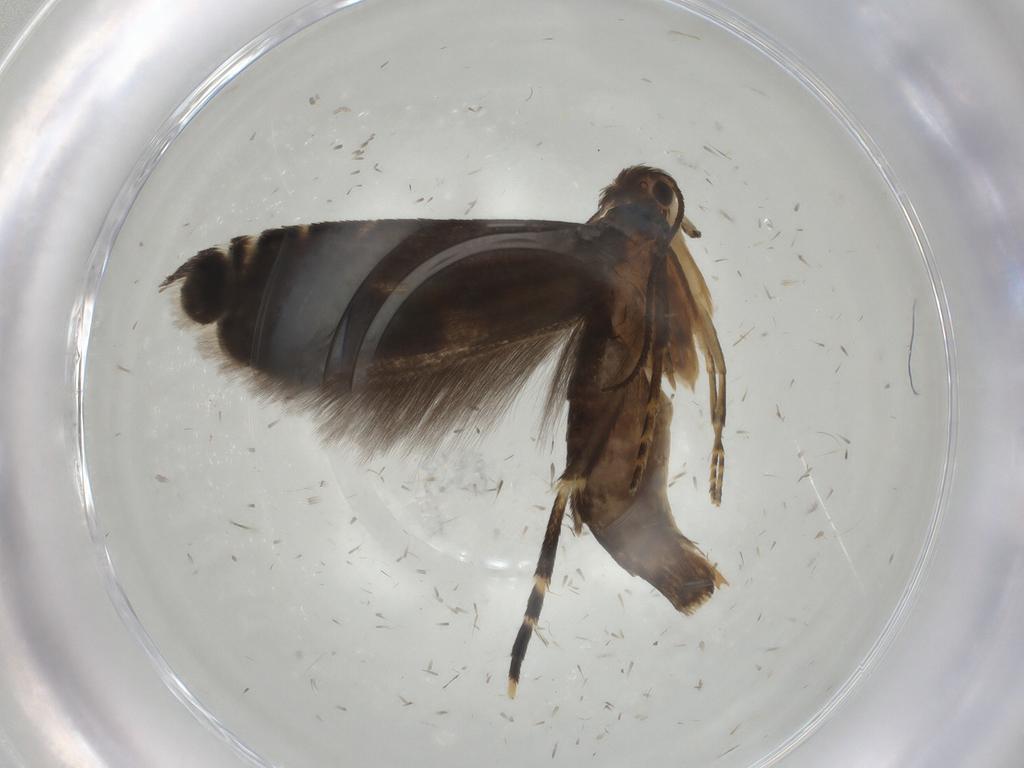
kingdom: Animalia
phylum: Arthropoda
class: Insecta
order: Lepidoptera
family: Glyphipterigidae
